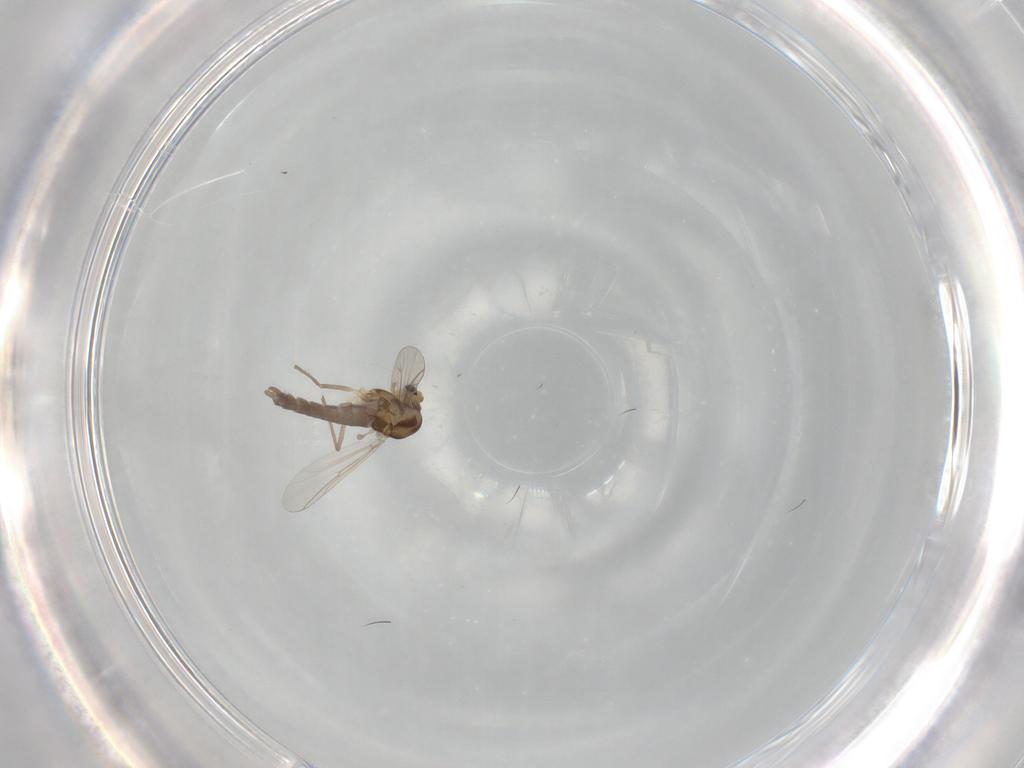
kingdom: Animalia
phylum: Arthropoda
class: Insecta
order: Diptera
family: Chironomidae
